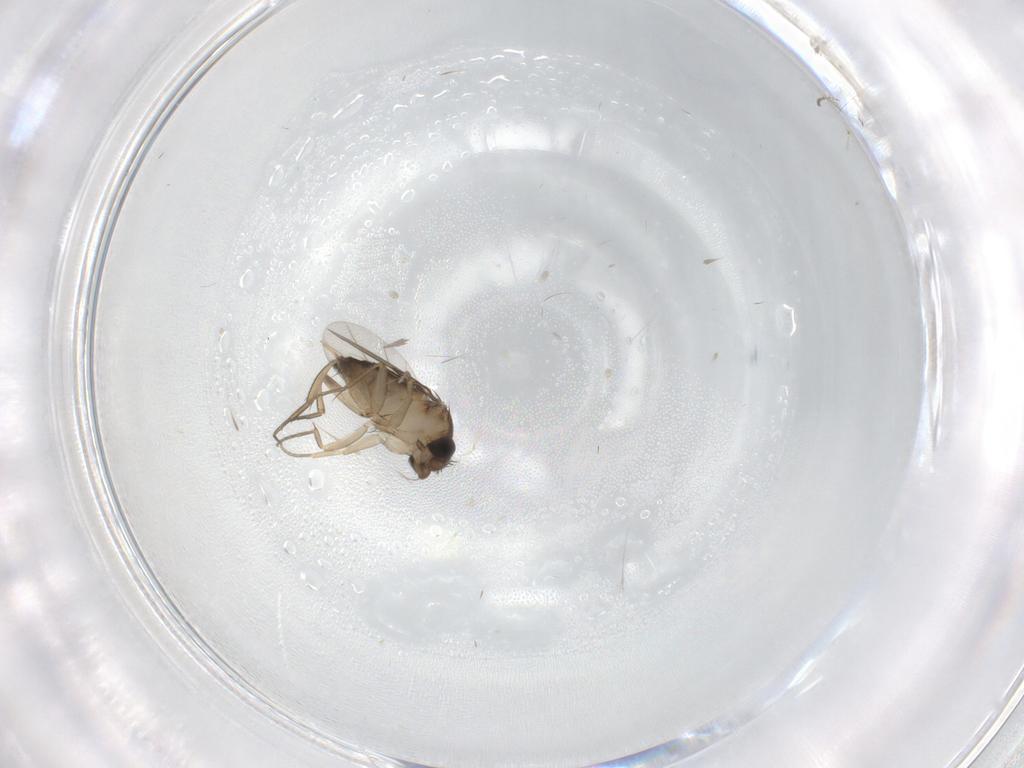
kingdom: Animalia
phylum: Arthropoda
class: Insecta
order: Diptera
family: Phoridae
